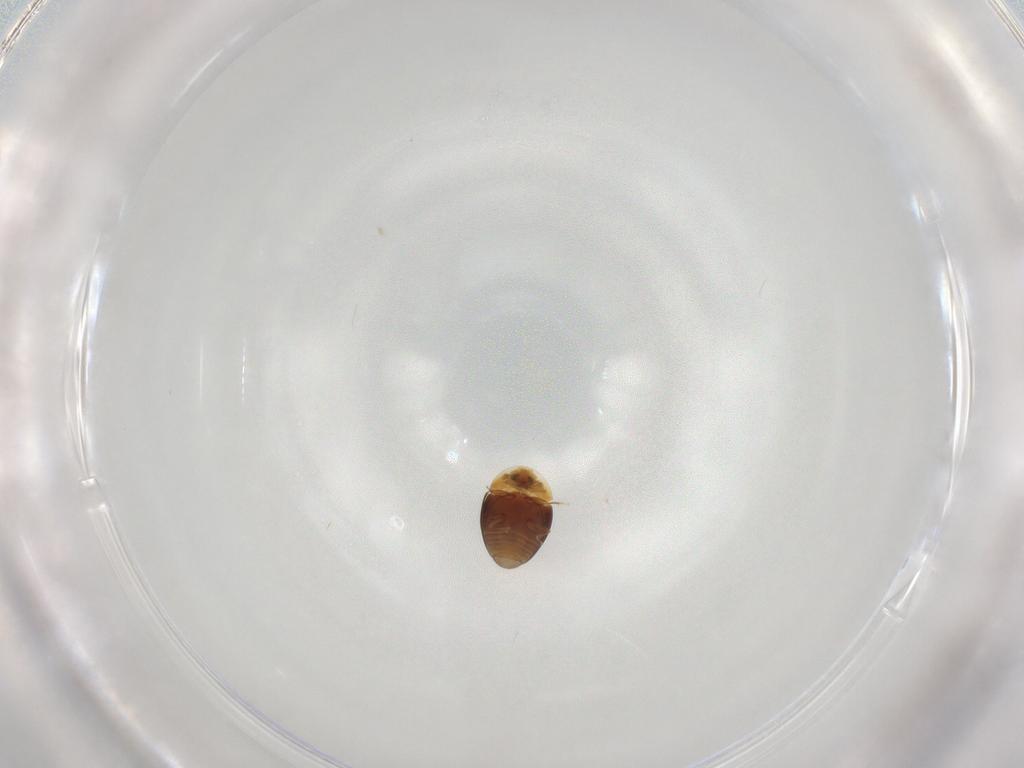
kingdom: Animalia
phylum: Arthropoda
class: Insecta
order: Coleoptera
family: Corylophidae
